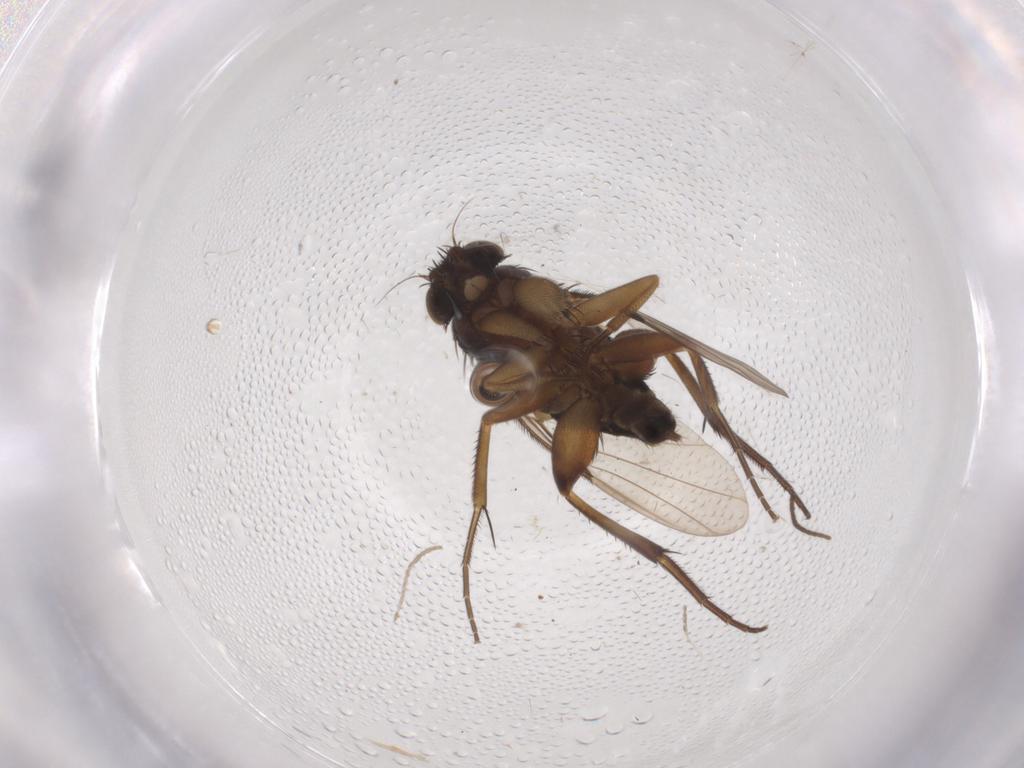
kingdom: Animalia
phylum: Arthropoda
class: Insecta
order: Diptera
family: Phoridae
